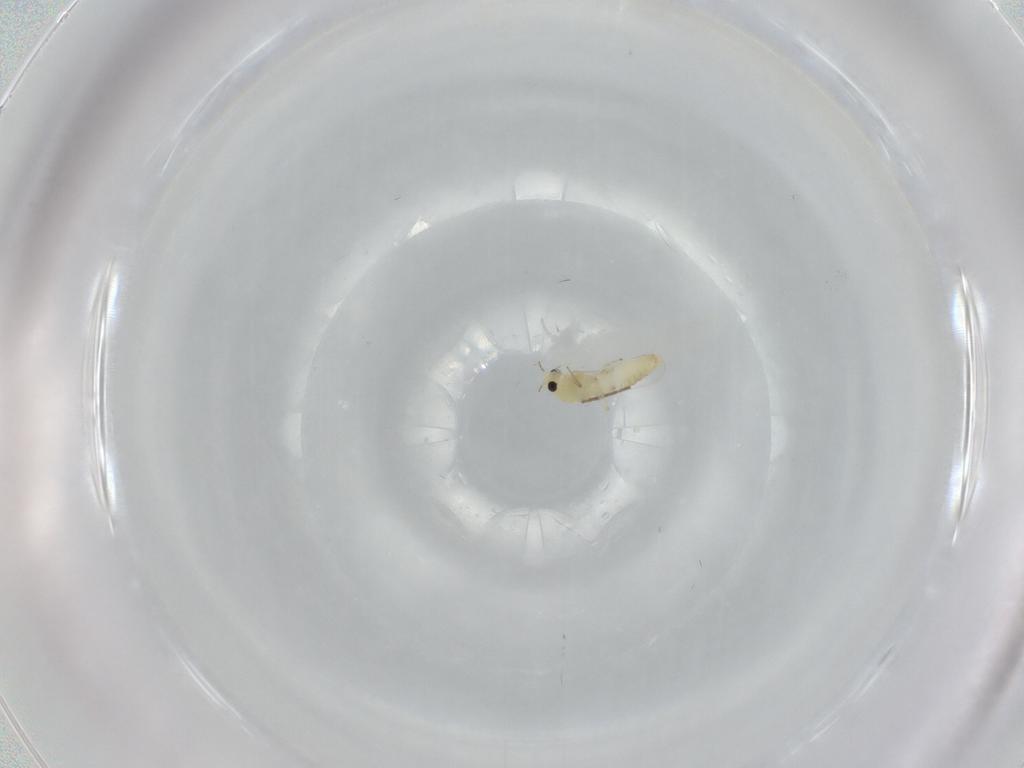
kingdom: Animalia
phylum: Arthropoda
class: Insecta
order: Diptera
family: Chironomidae
